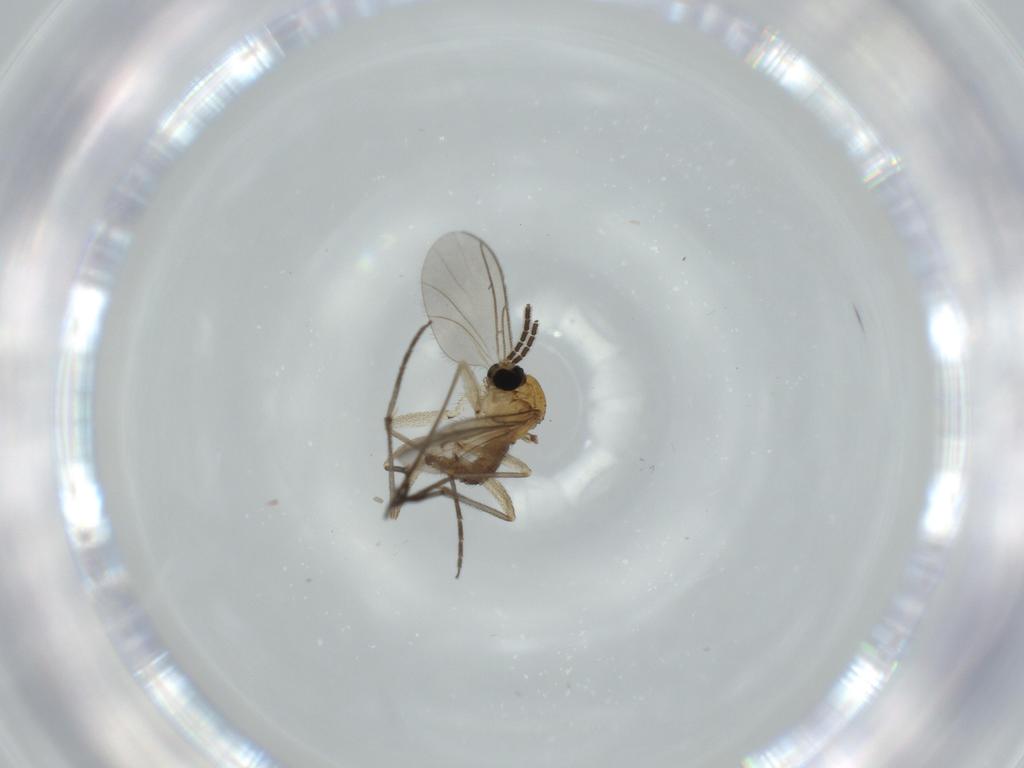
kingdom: Animalia
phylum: Arthropoda
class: Insecta
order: Diptera
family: Sciaridae
